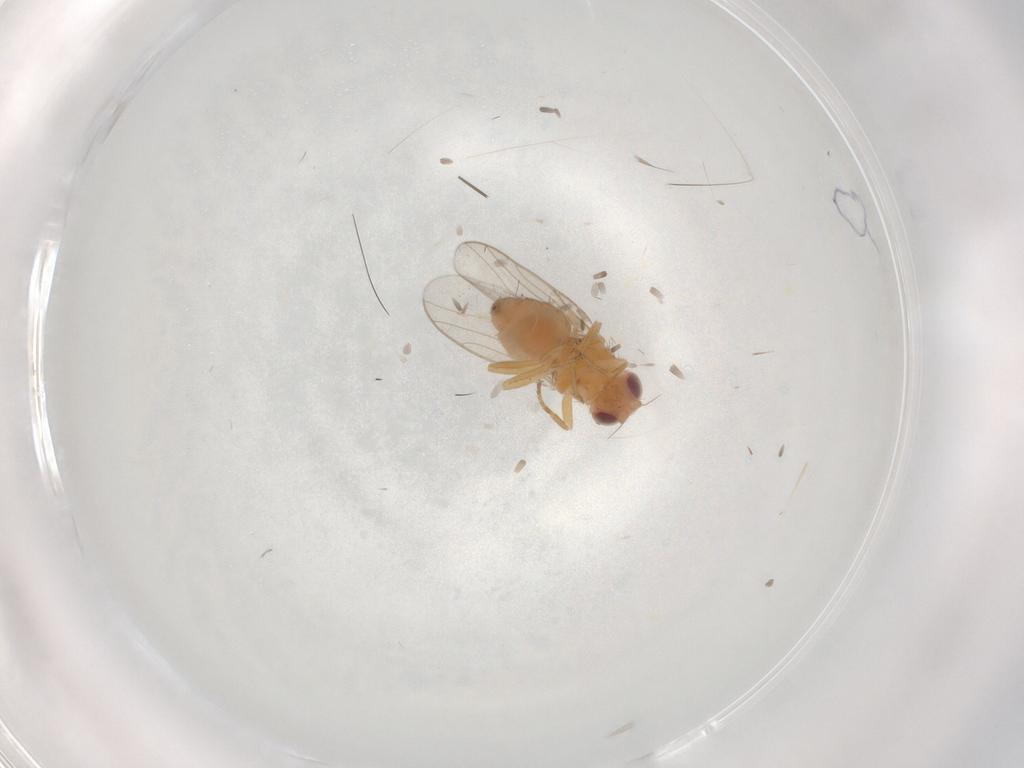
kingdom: Animalia
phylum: Arthropoda
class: Insecta
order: Diptera
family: Chloropidae
